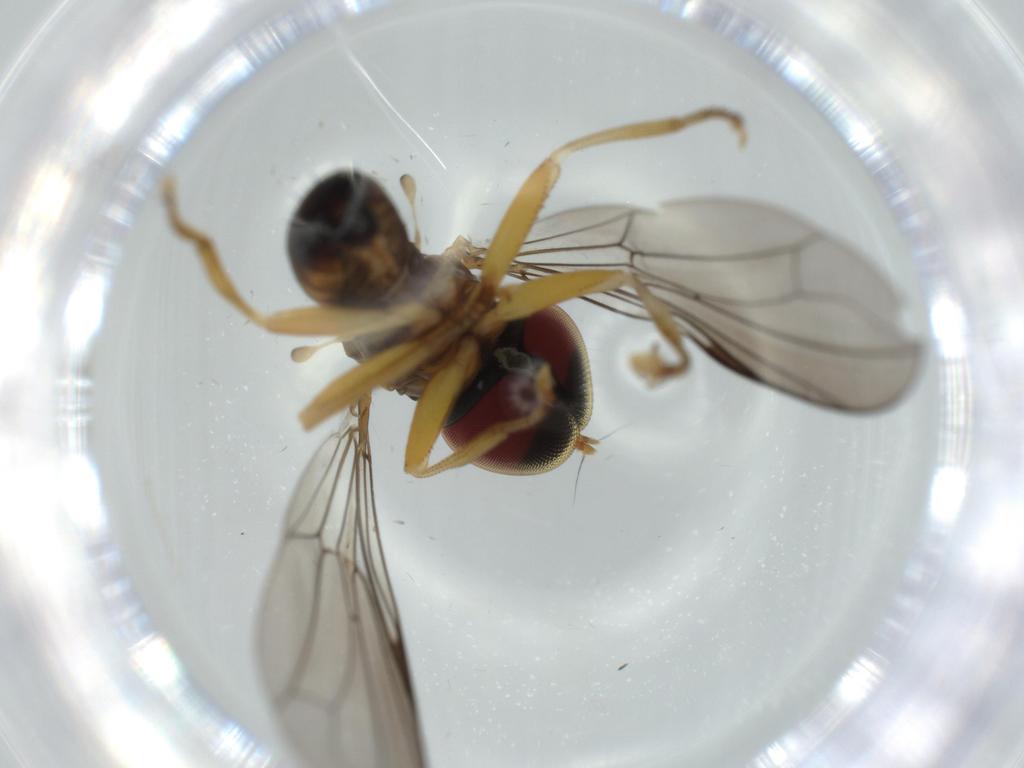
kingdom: Animalia
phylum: Arthropoda
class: Insecta
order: Diptera
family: Pipunculidae
